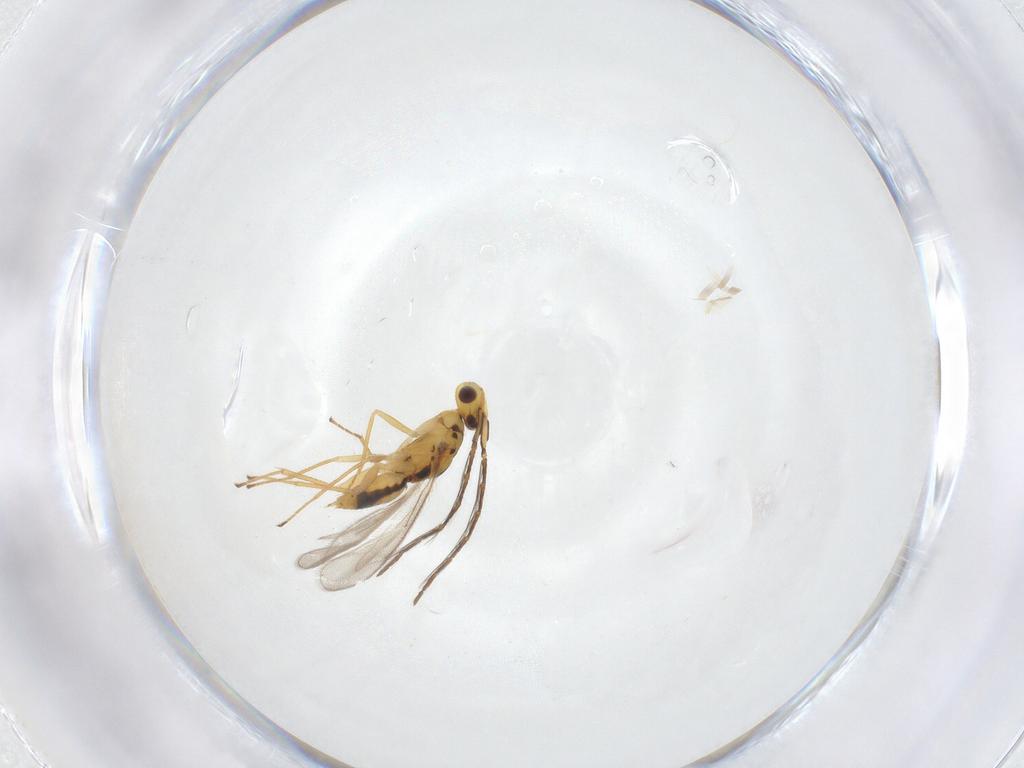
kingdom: Animalia
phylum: Arthropoda
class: Insecta
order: Hymenoptera
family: Eulophidae
